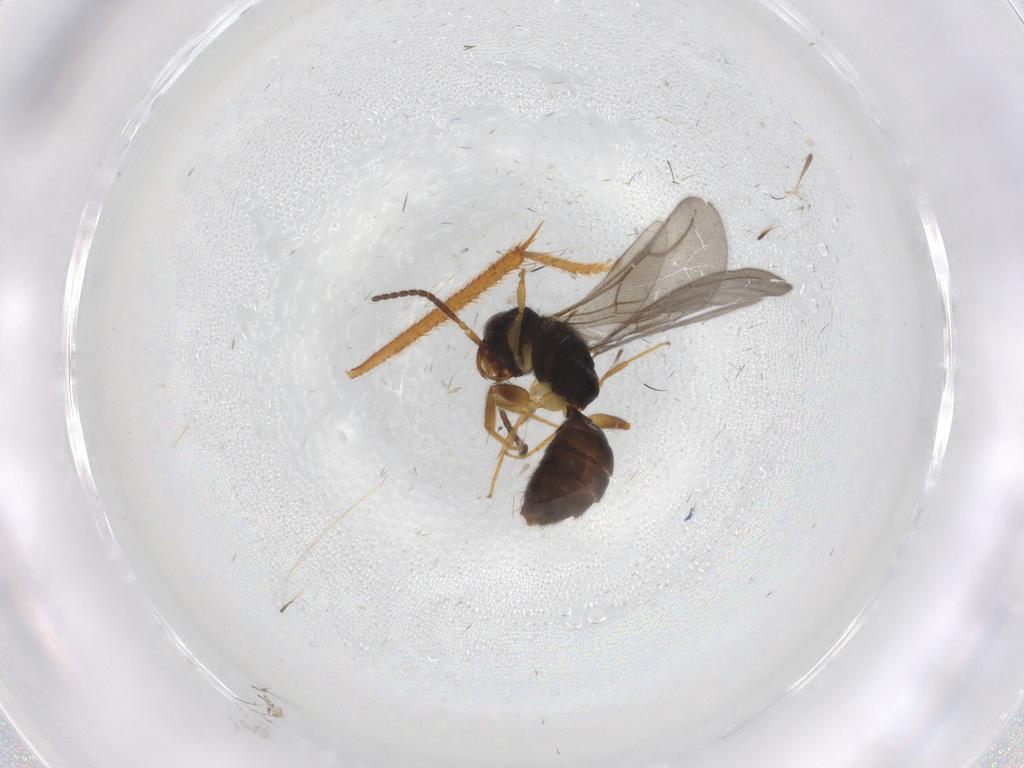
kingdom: Animalia
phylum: Arthropoda
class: Insecta
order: Hymenoptera
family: Bethylidae
